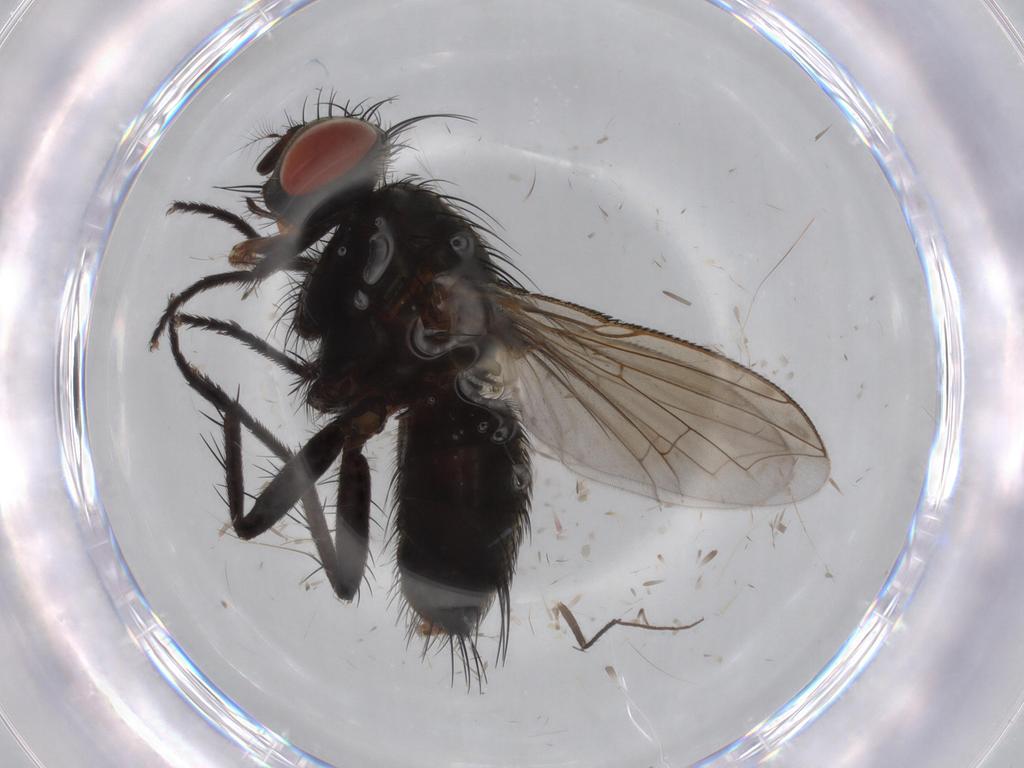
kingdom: Animalia
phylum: Arthropoda
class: Insecta
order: Diptera
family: Sarcophagidae
